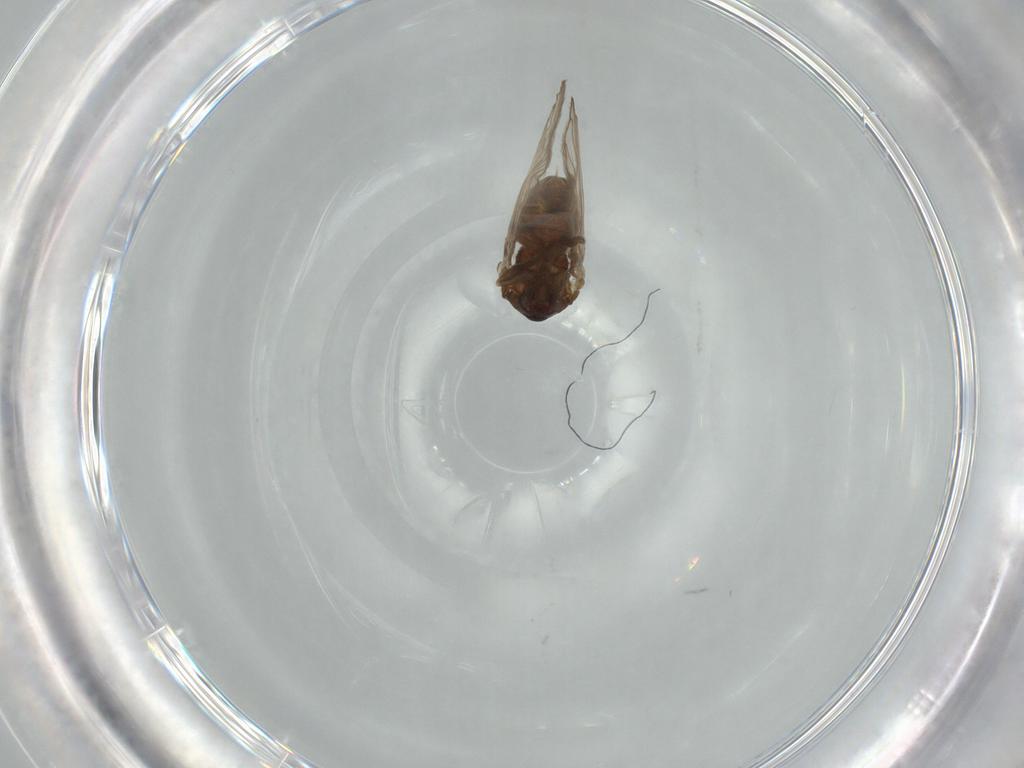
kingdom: Animalia
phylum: Arthropoda
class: Insecta
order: Diptera
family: Psychodidae
